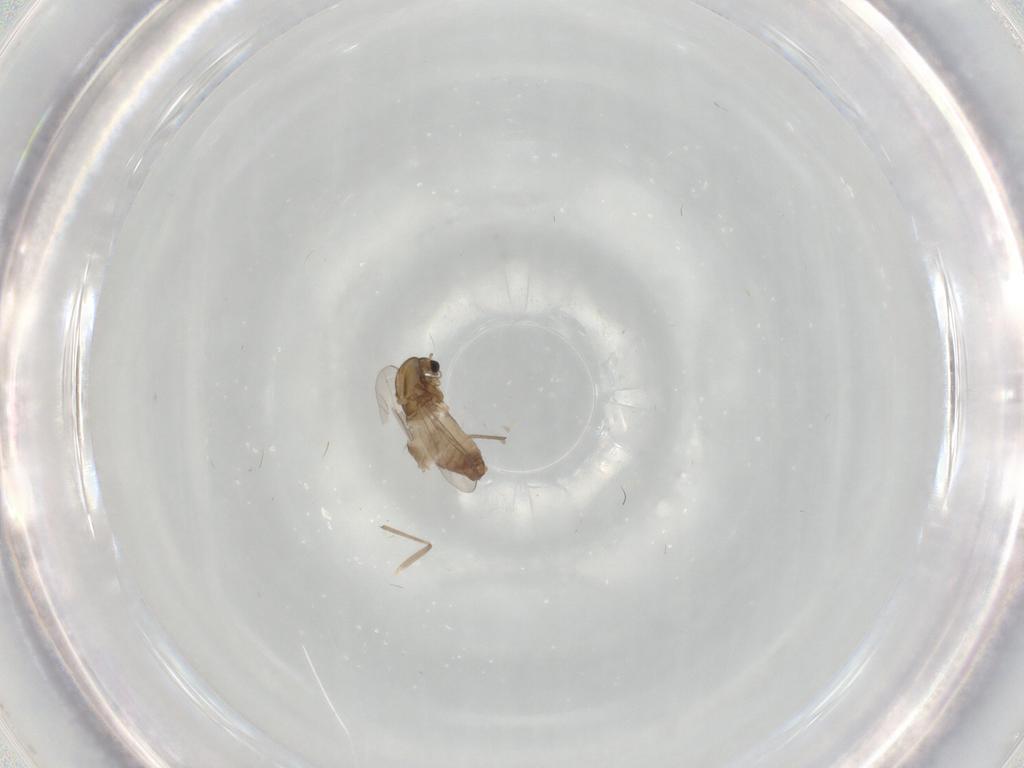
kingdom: Animalia
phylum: Arthropoda
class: Insecta
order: Diptera
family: Chironomidae
